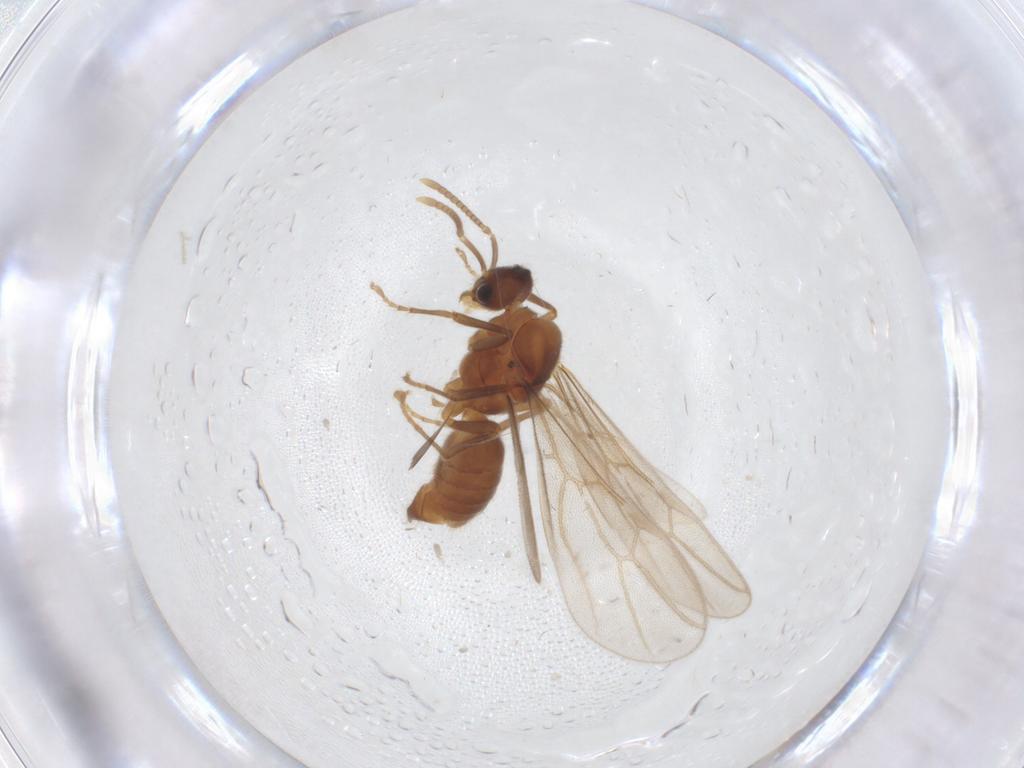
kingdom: Animalia
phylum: Arthropoda
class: Insecta
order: Hymenoptera
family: Formicidae
